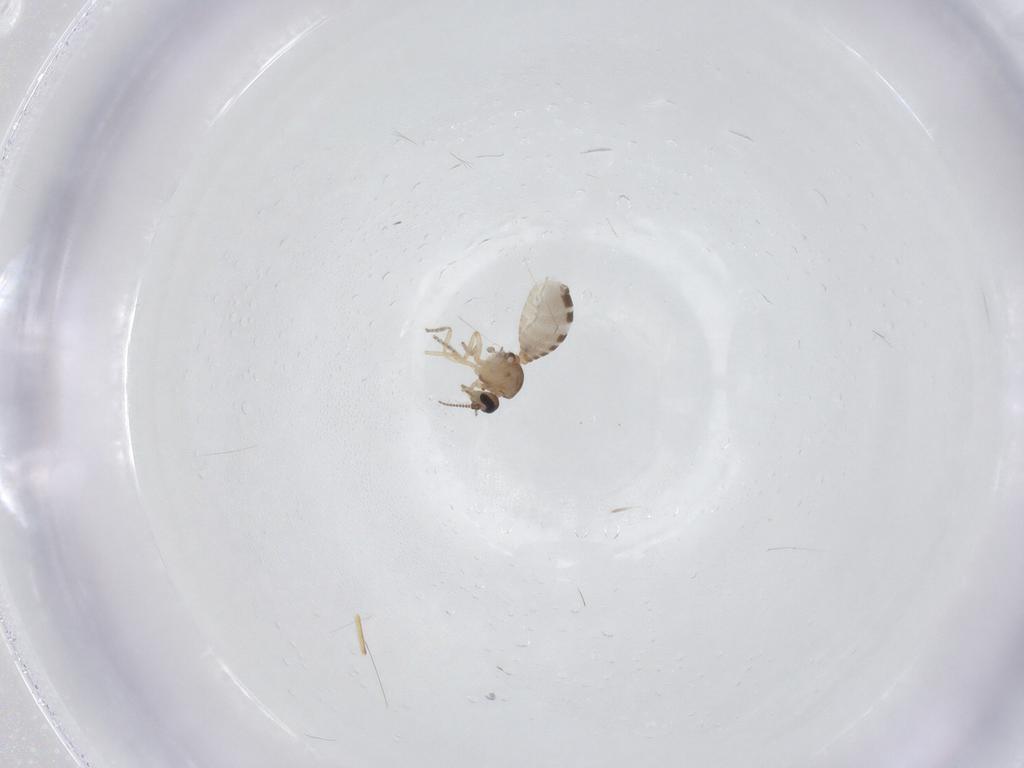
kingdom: Animalia
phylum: Arthropoda
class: Insecta
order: Diptera
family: Ceratopogonidae
